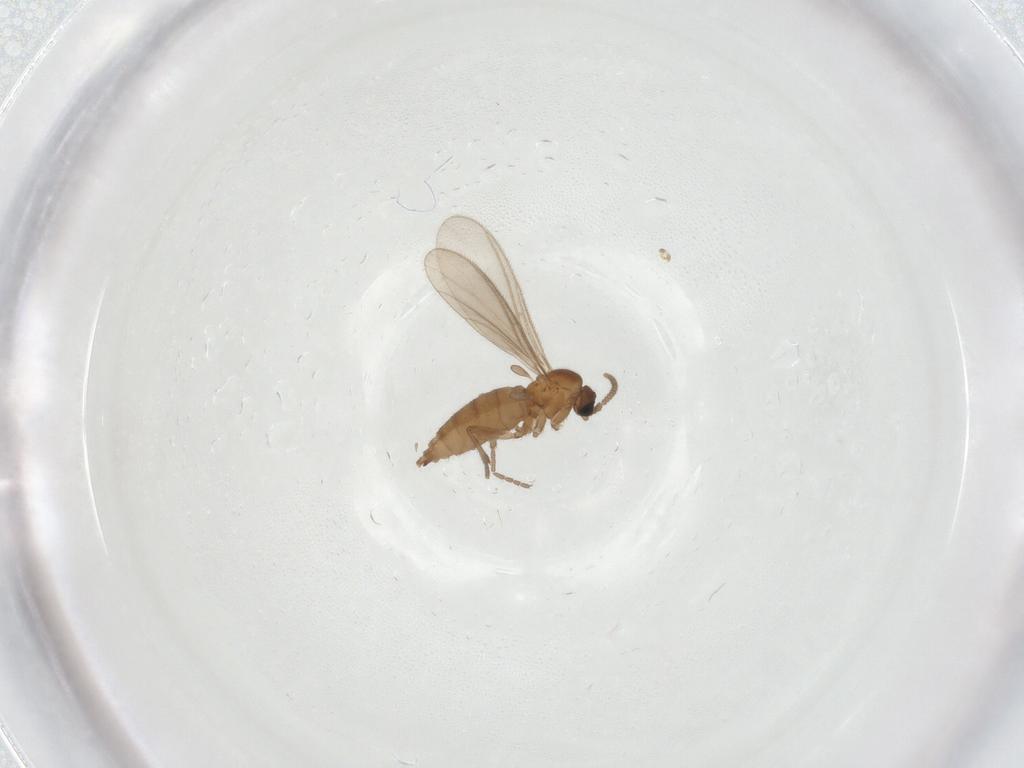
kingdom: Animalia
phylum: Arthropoda
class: Insecta
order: Diptera
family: Sciaridae
